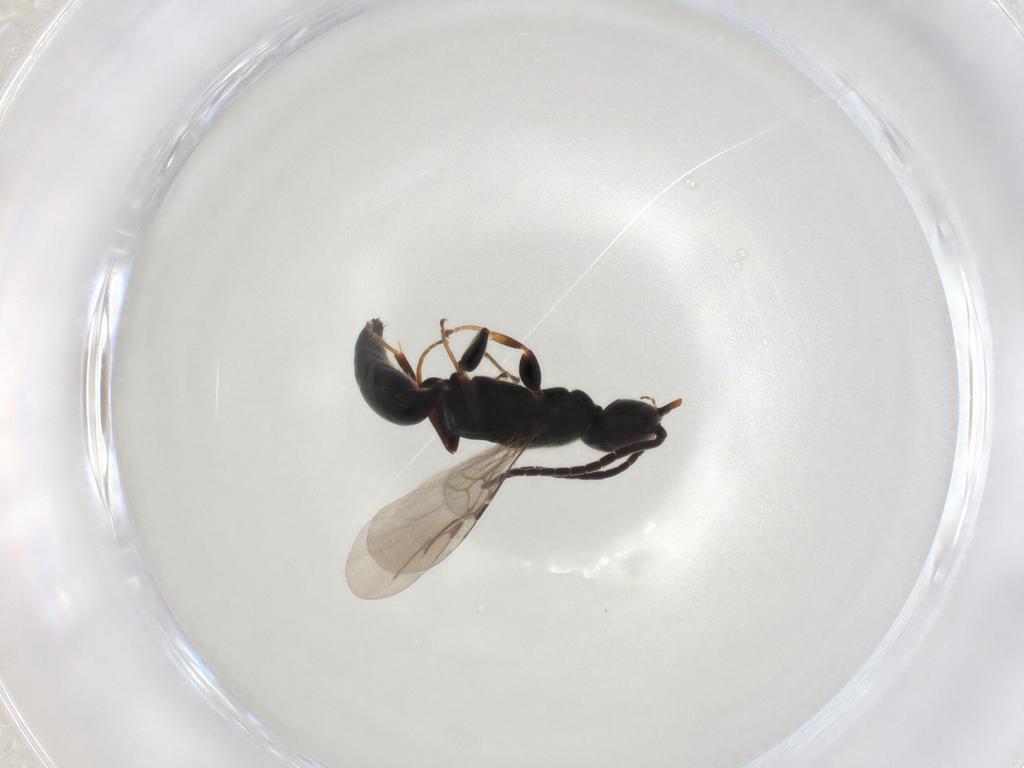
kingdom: Animalia
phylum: Arthropoda
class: Insecta
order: Hymenoptera
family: Bethylidae
